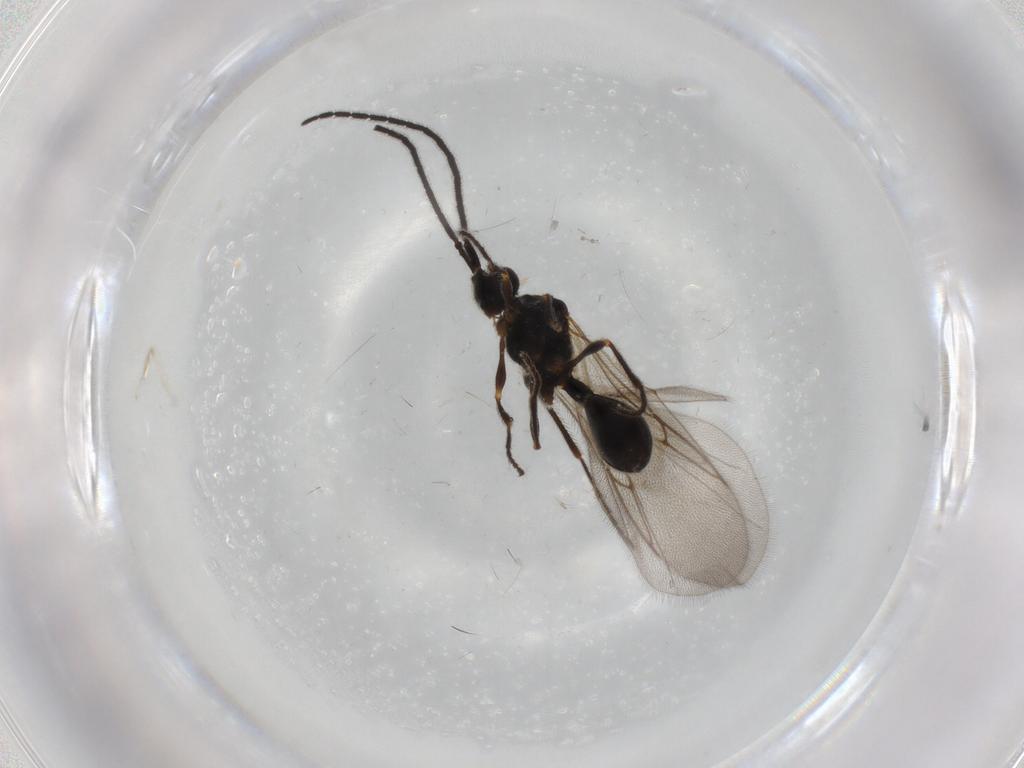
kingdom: Animalia
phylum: Arthropoda
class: Insecta
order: Hymenoptera
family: Diapriidae
